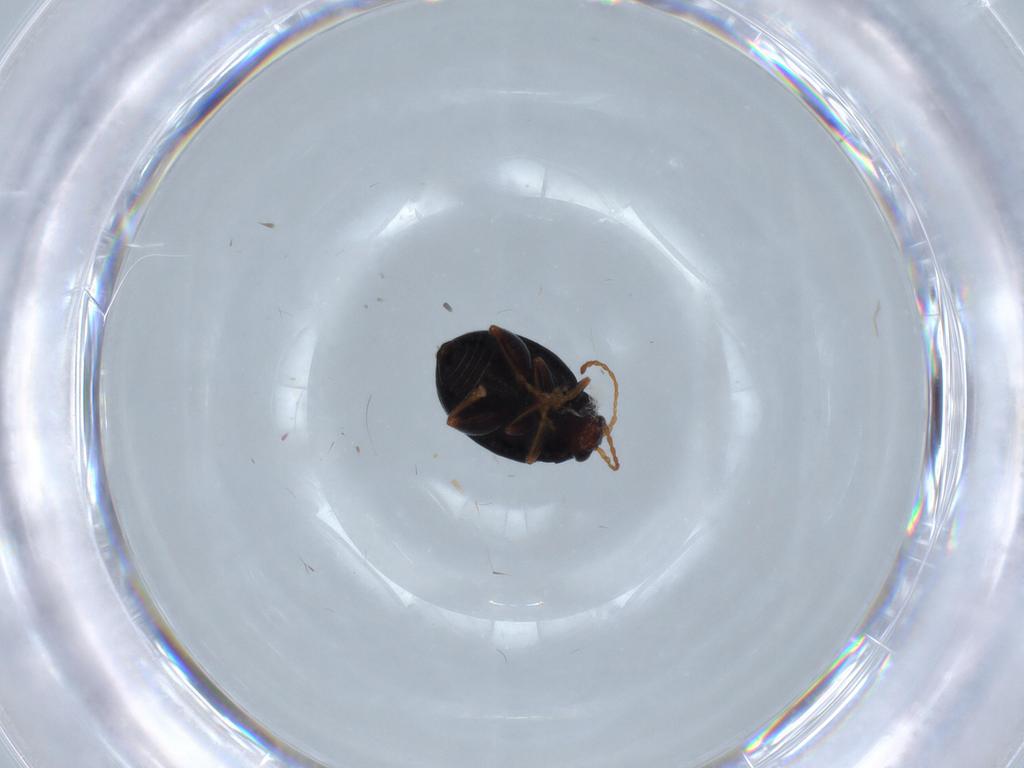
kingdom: Animalia
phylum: Arthropoda
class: Insecta
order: Coleoptera
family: Chrysomelidae
